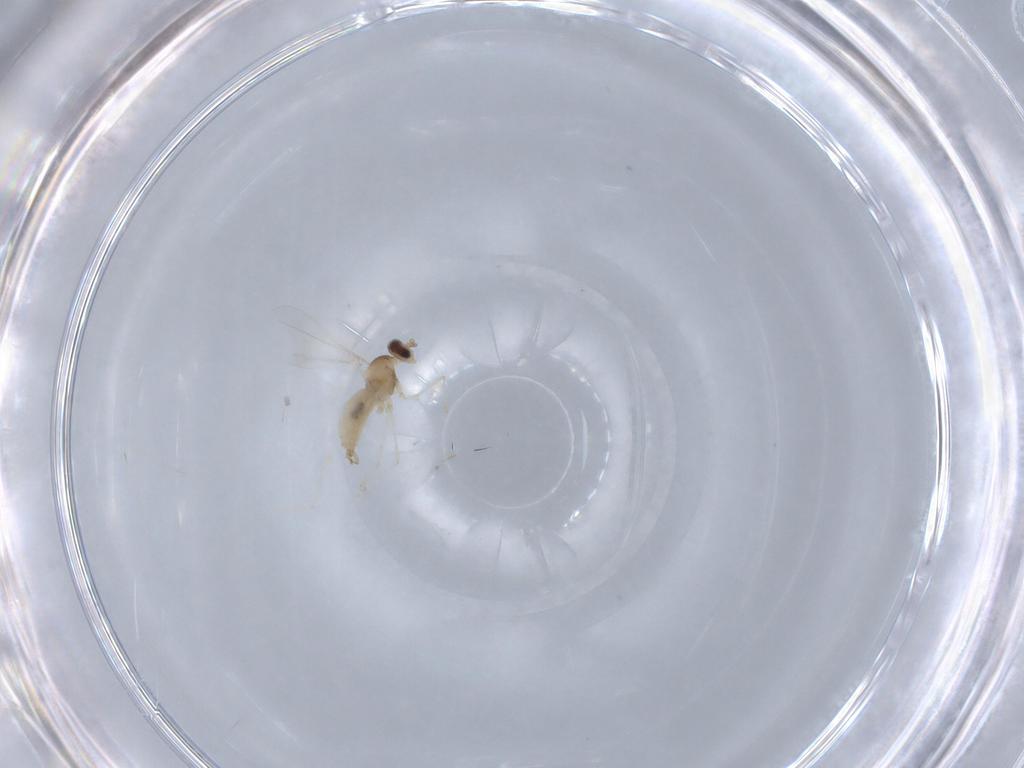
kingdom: Animalia
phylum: Arthropoda
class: Insecta
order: Diptera
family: Cecidomyiidae
